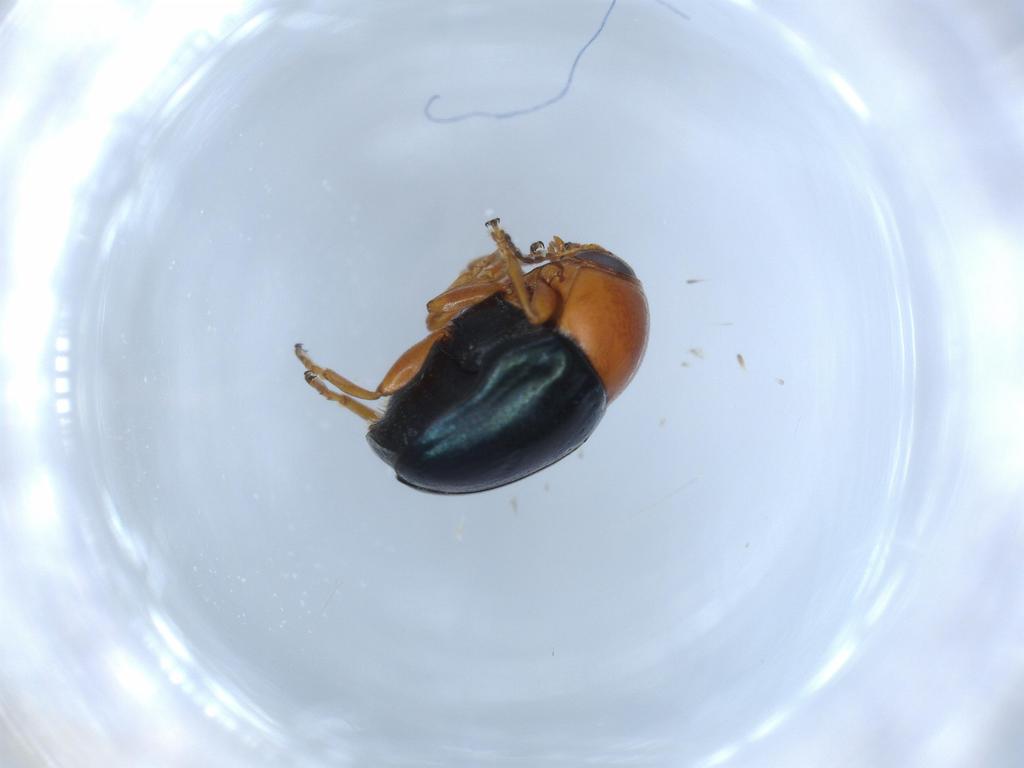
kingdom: Animalia
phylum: Arthropoda
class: Insecta
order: Coleoptera
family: Chrysomelidae
